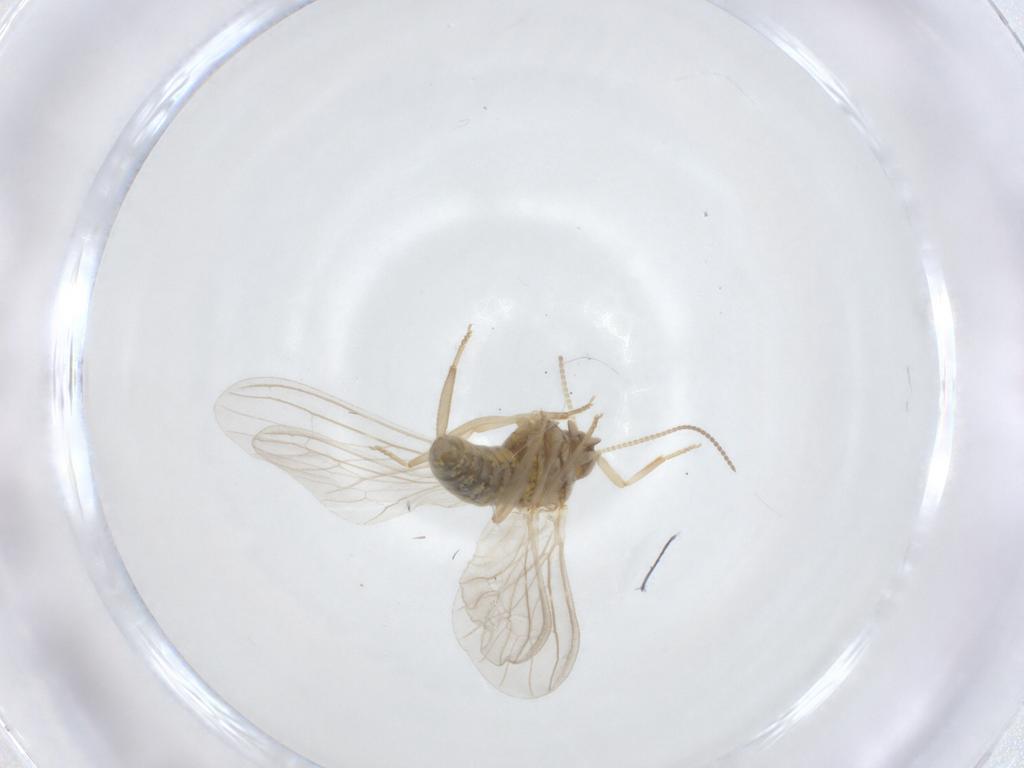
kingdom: Animalia
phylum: Arthropoda
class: Insecta
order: Neuroptera
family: Coniopterygidae
